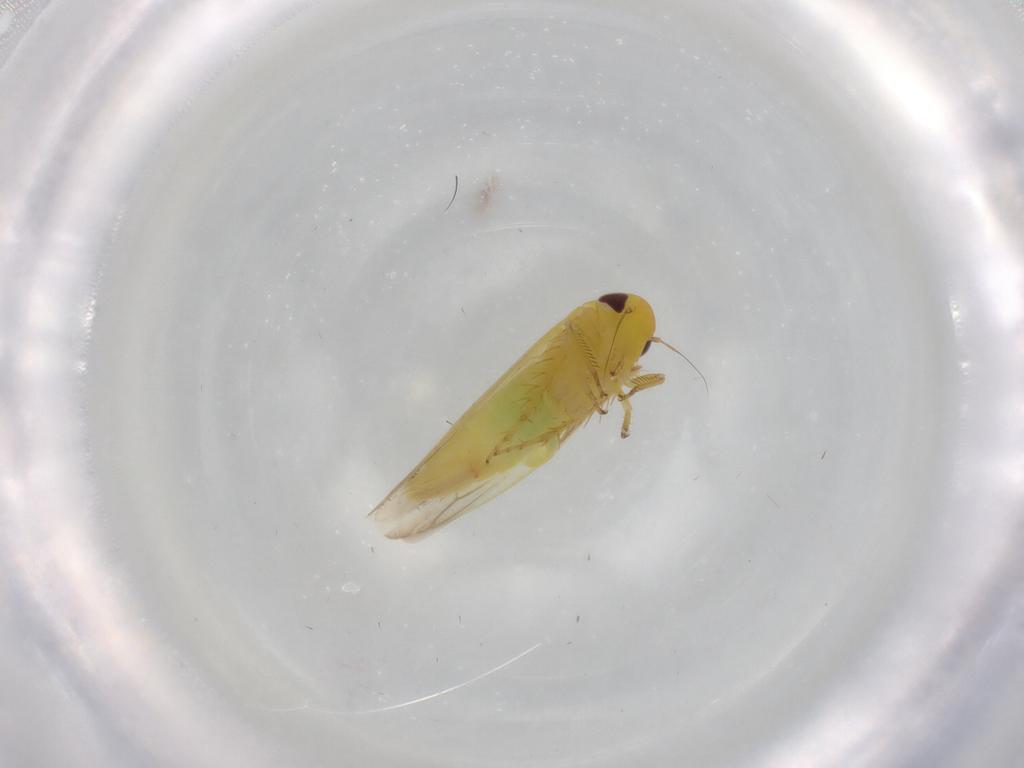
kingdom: Animalia
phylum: Arthropoda
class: Insecta
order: Hemiptera
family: Cicadellidae
